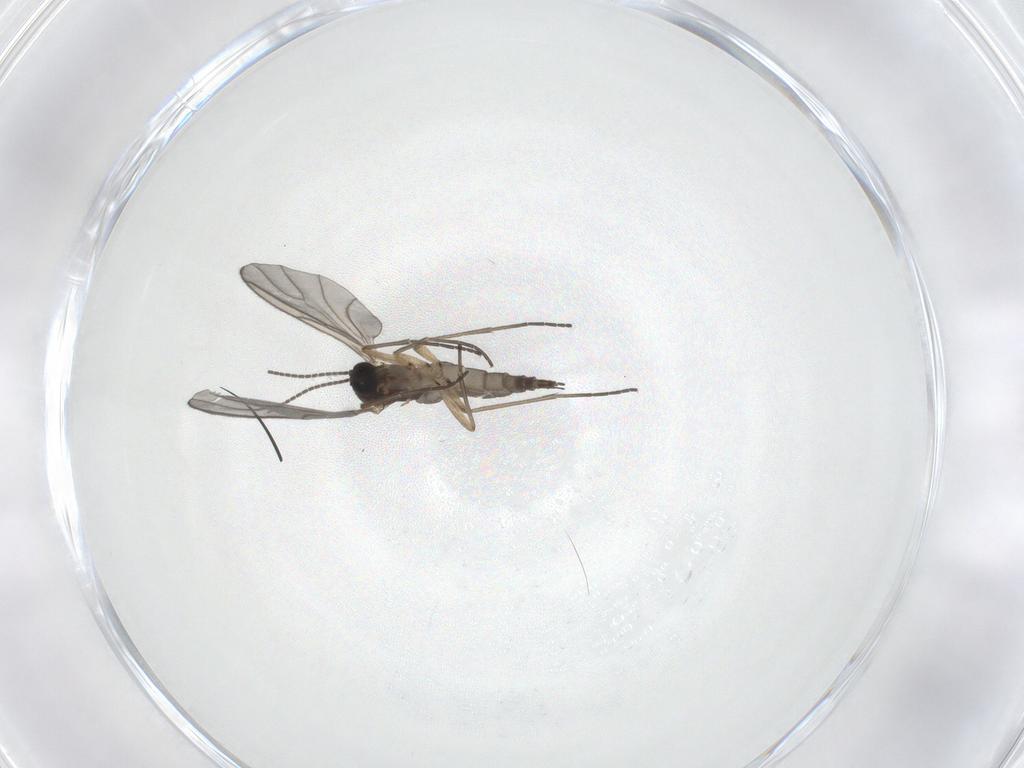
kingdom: Animalia
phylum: Arthropoda
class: Insecta
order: Diptera
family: Sciaridae
